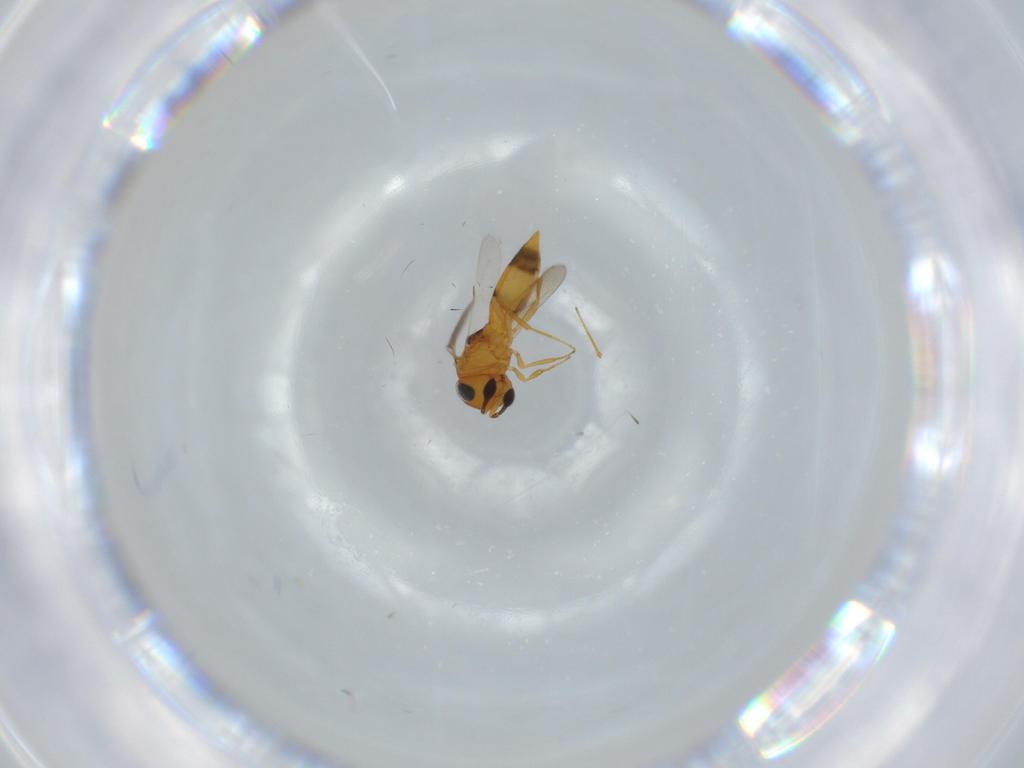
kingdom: Animalia
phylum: Arthropoda
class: Insecta
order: Hymenoptera
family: Scelionidae
